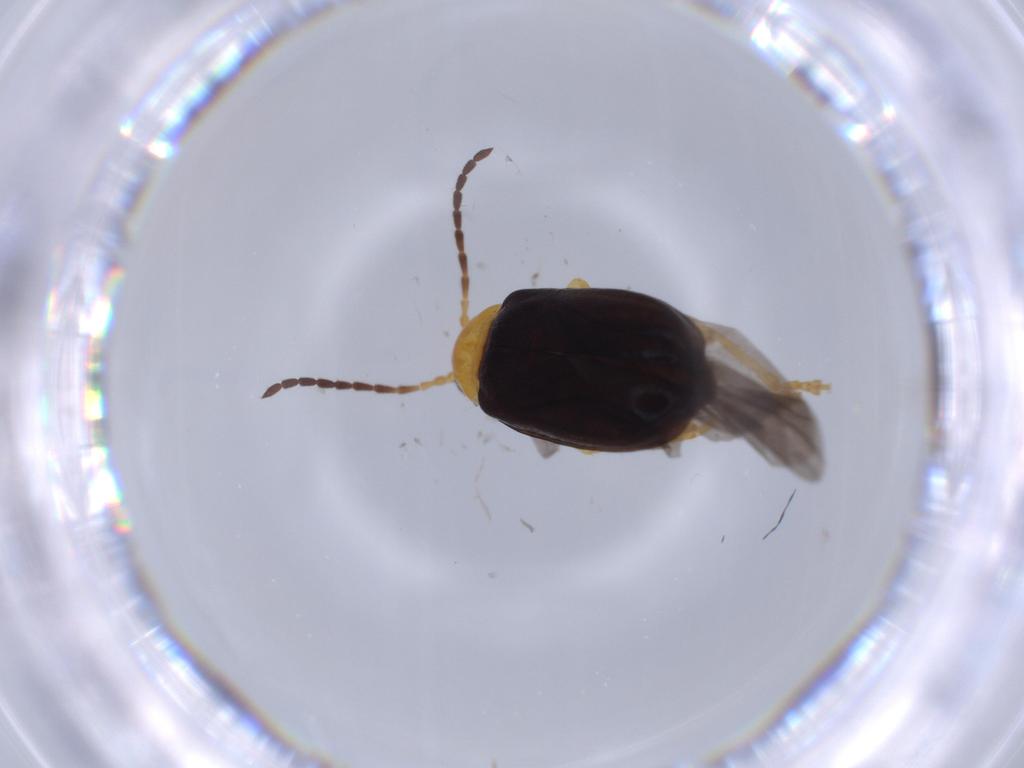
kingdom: Animalia
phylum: Arthropoda
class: Insecta
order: Coleoptera
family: Chrysomelidae
